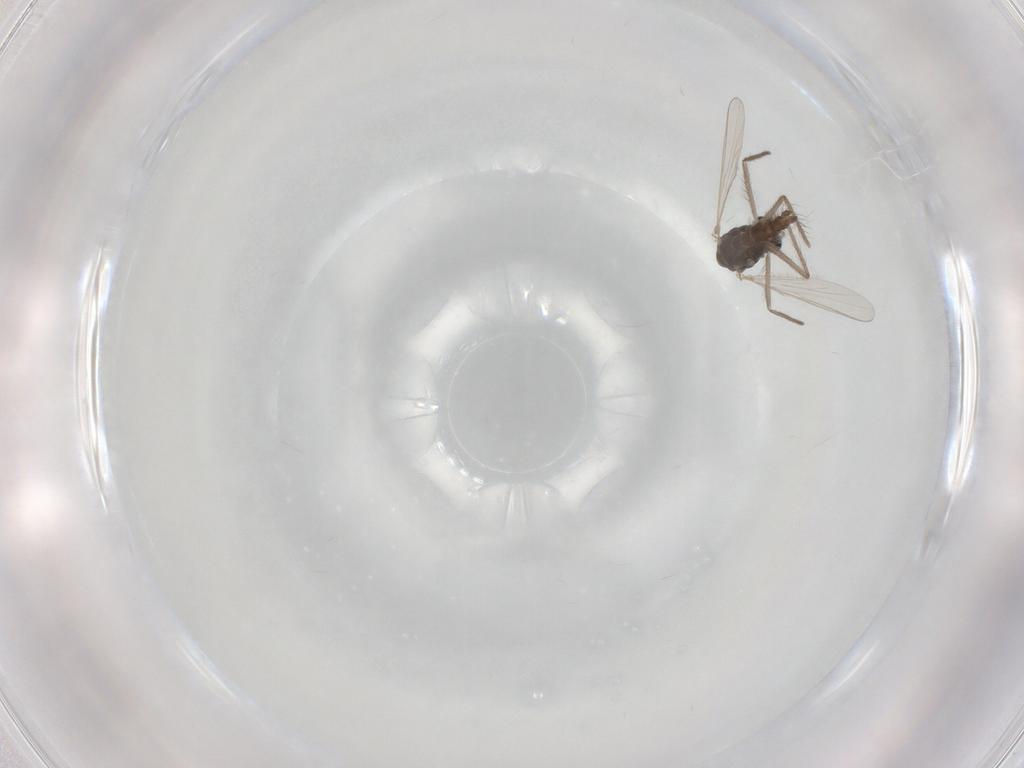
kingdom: Animalia
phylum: Arthropoda
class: Insecta
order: Diptera
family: Chironomidae
